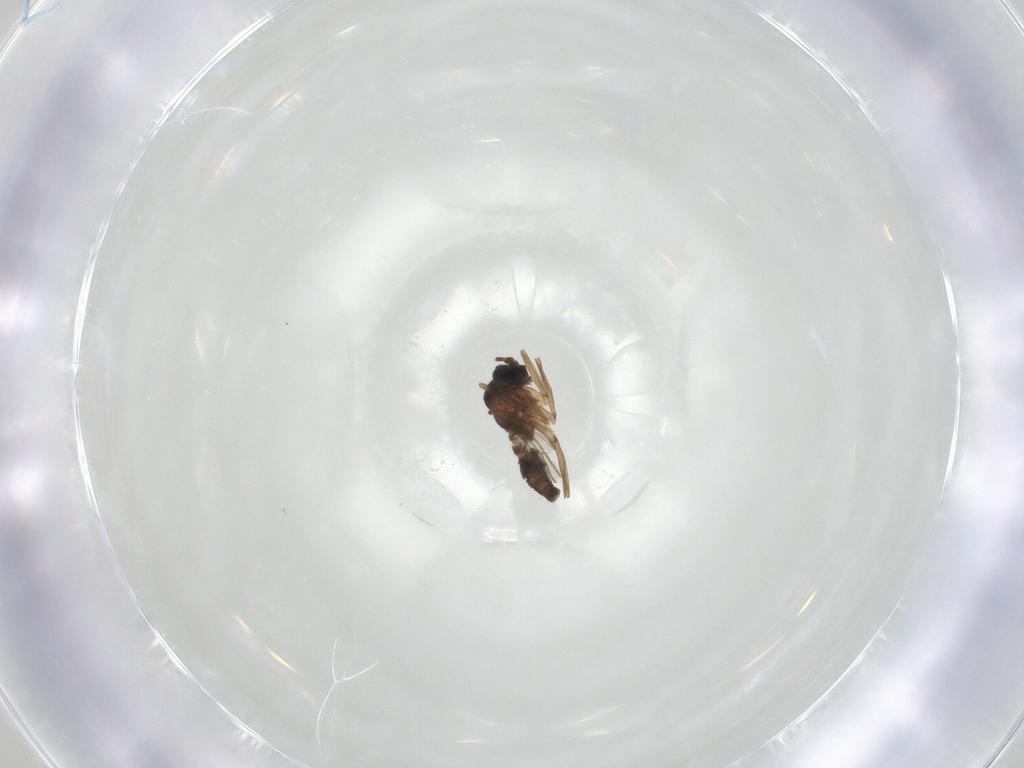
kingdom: Animalia
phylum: Arthropoda
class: Insecta
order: Diptera
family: Sciaridae
